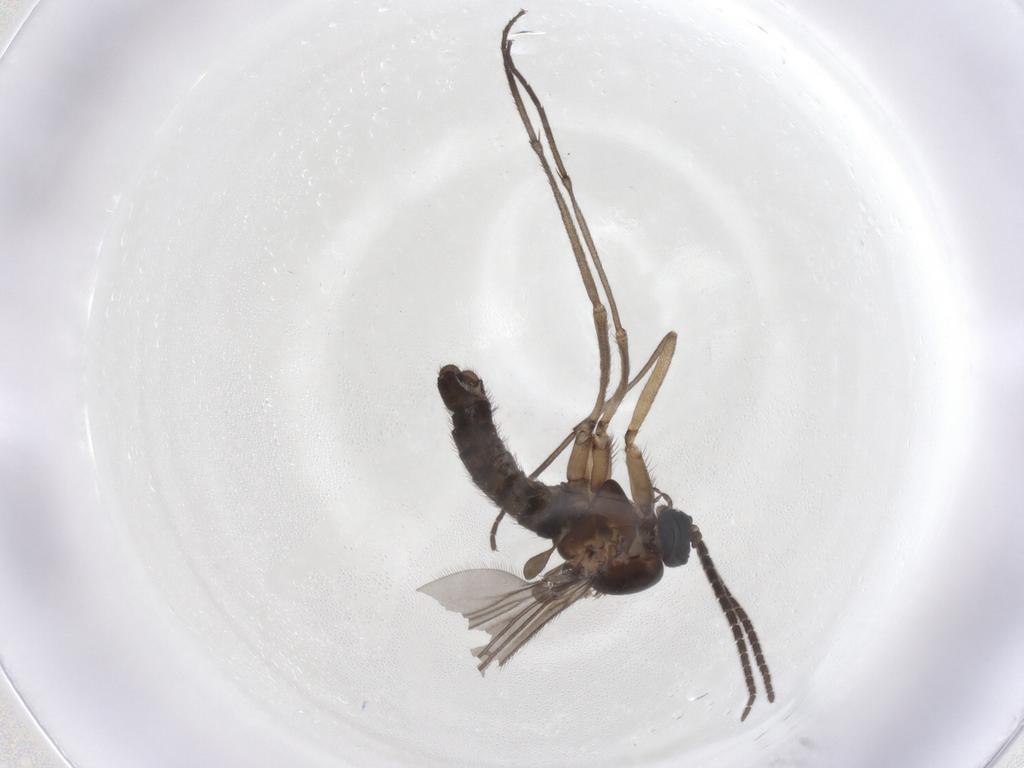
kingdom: Animalia
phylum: Arthropoda
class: Insecta
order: Diptera
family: Sciaridae
